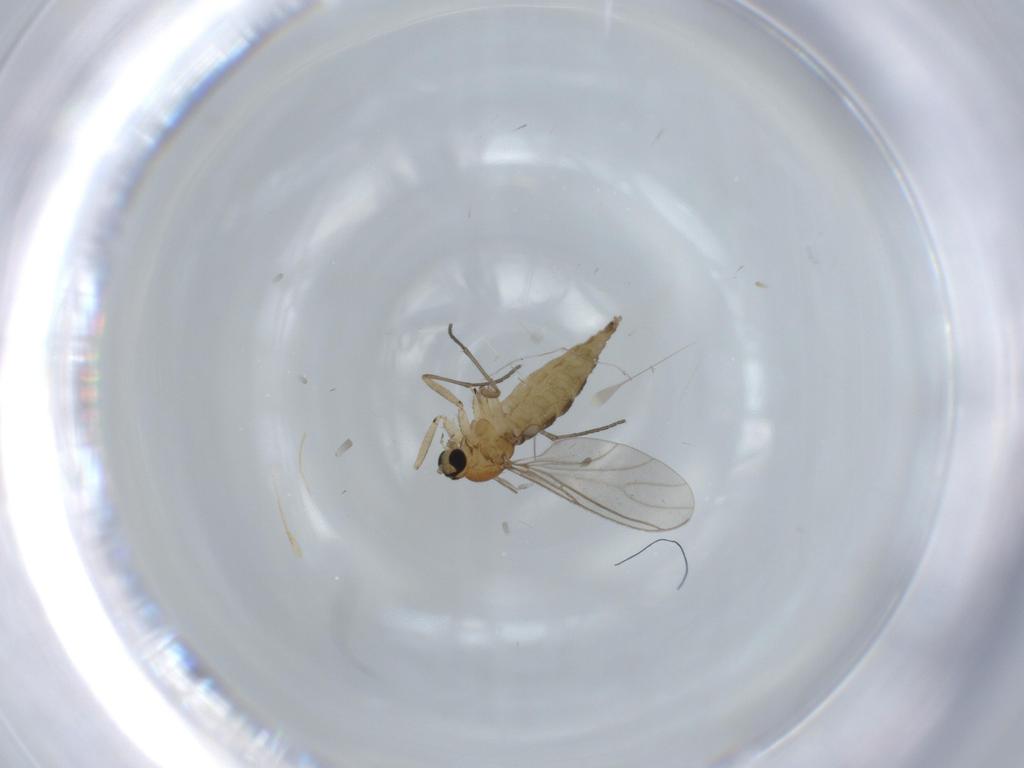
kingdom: Animalia
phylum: Arthropoda
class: Insecta
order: Diptera
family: Sciaridae
